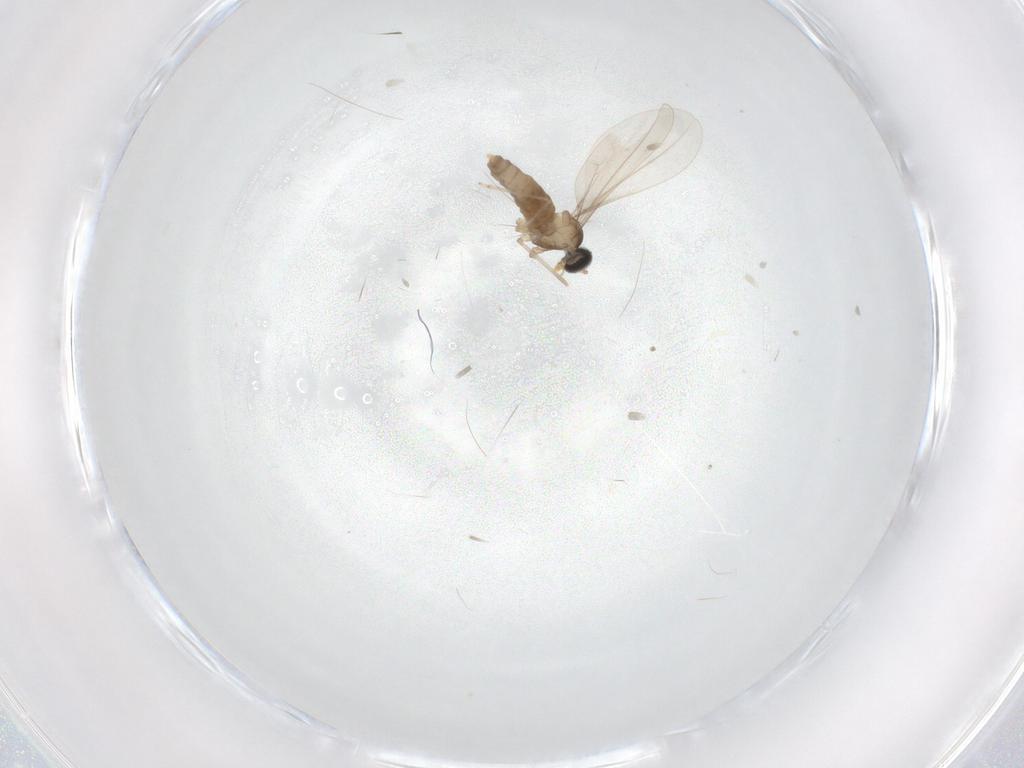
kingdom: Animalia
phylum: Arthropoda
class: Insecta
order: Diptera
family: Cecidomyiidae
